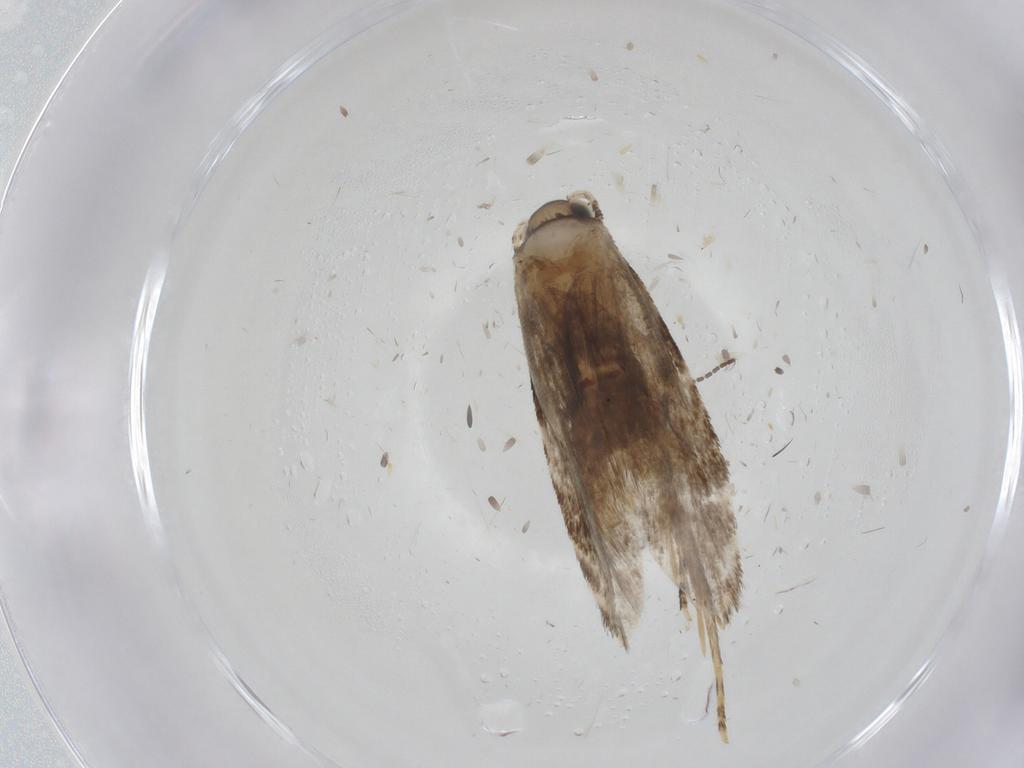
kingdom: Animalia
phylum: Arthropoda
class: Insecta
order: Lepidoptera
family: Tineidae
